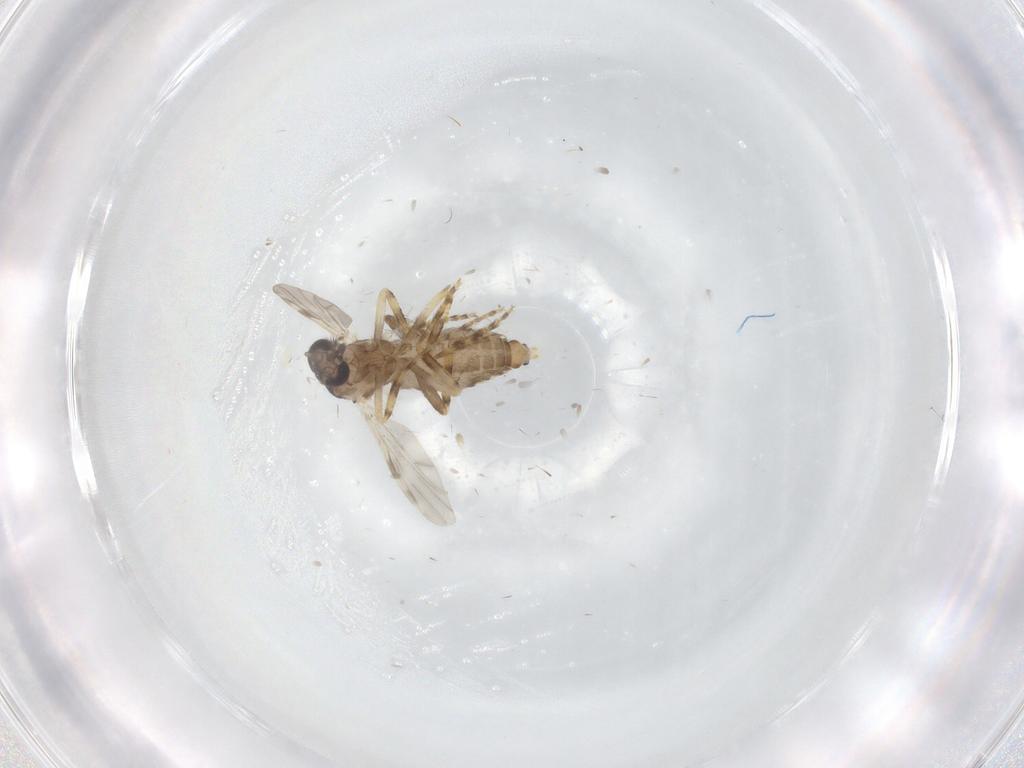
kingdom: Animalia
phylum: Arthropoda
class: Insecta
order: Diptera
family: Ceratopogonidae
